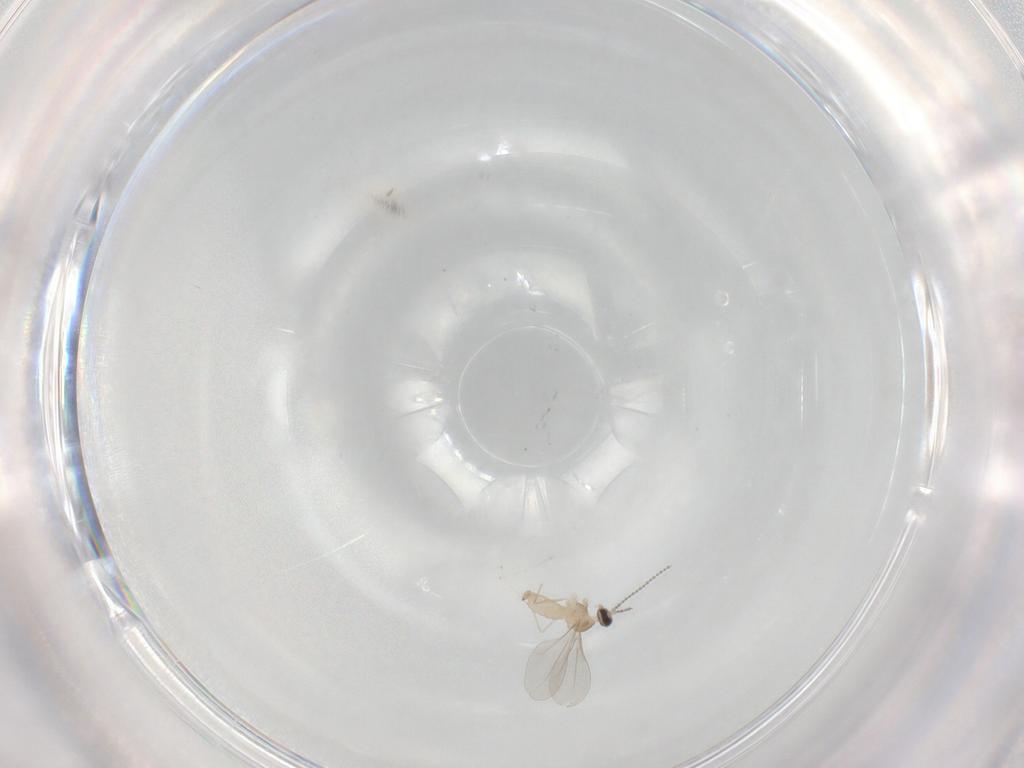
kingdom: Animalia
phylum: Arthropoda
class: Insecta
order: Diptera
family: Cecidomyiidae
